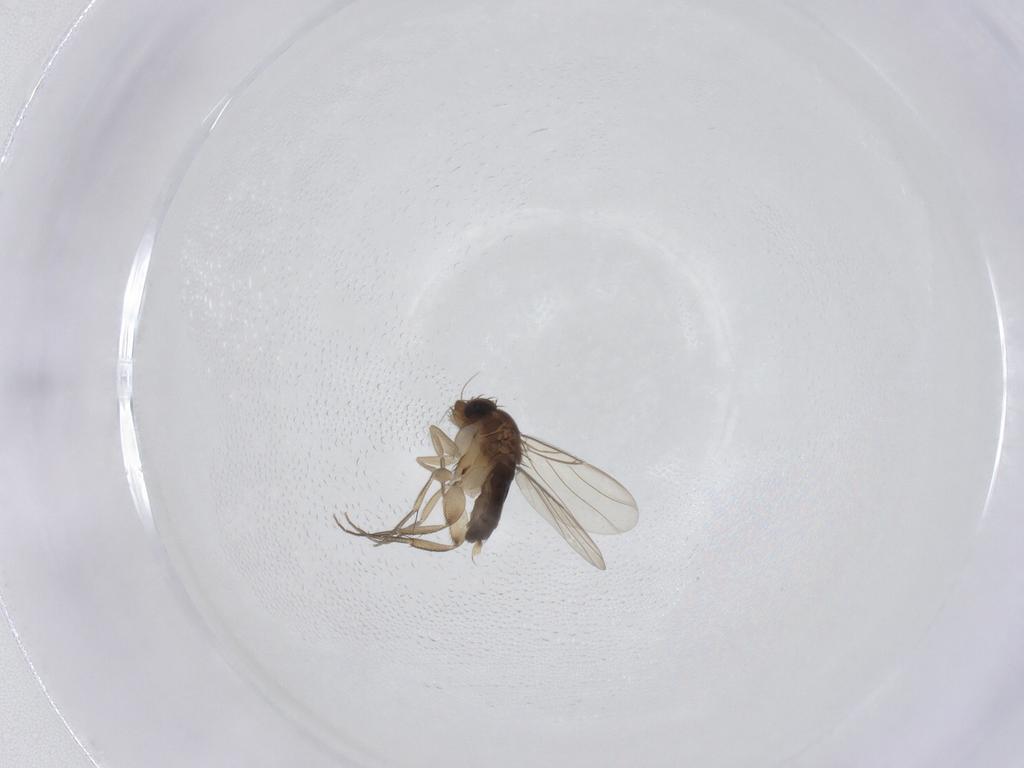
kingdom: Animalia
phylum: Arthropoda
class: Insecta
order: Diptera
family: Phoridae
